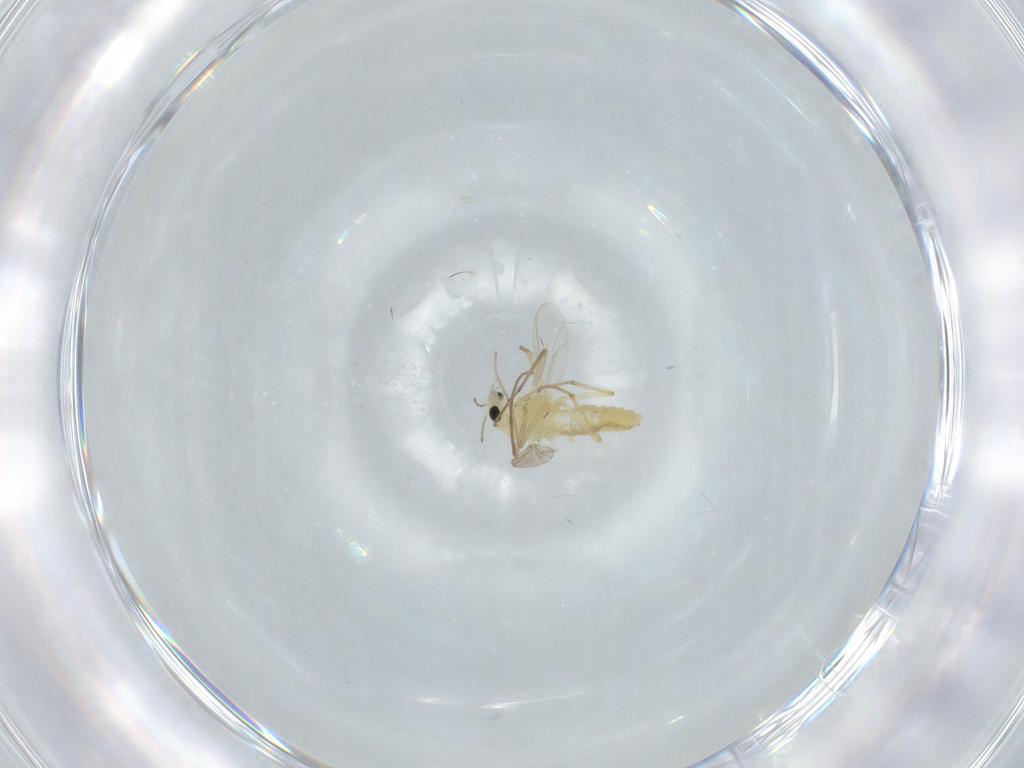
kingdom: Animalia
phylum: Arthropoda
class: Insecta
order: Diptera
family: Chironomidae
